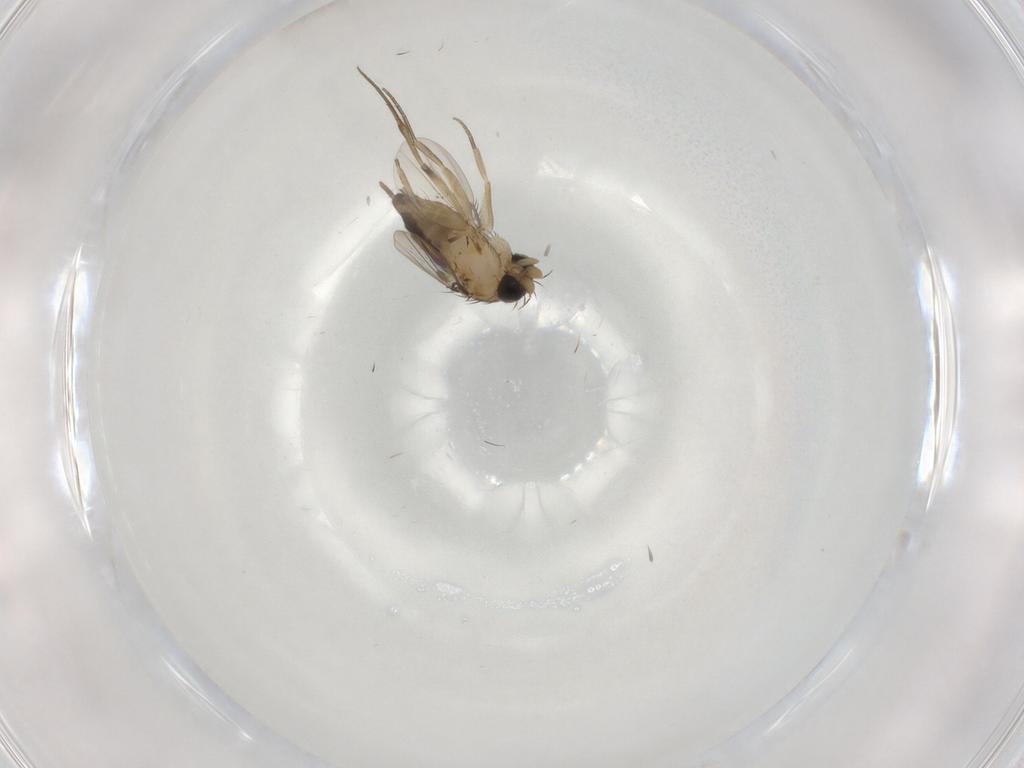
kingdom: Animalia
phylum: Arthropoda
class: Insecta
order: Diptera
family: Phoridae
